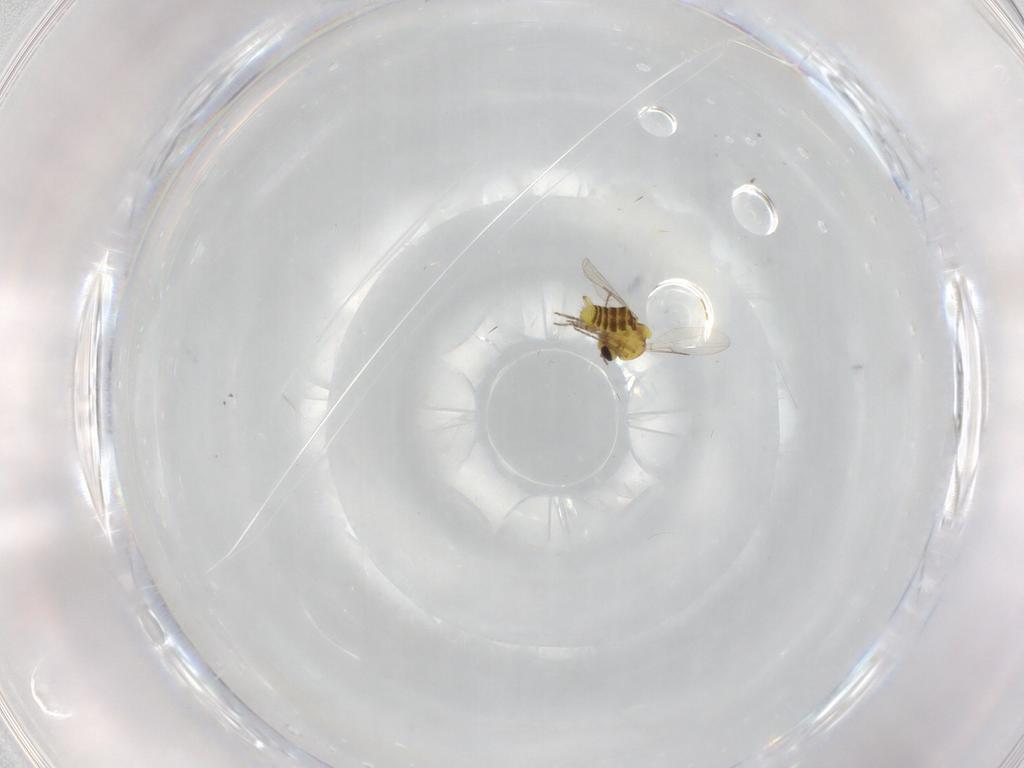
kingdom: Animalia
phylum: Arthropoda
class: Insecta
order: Diptera
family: Ceratopogonidae
